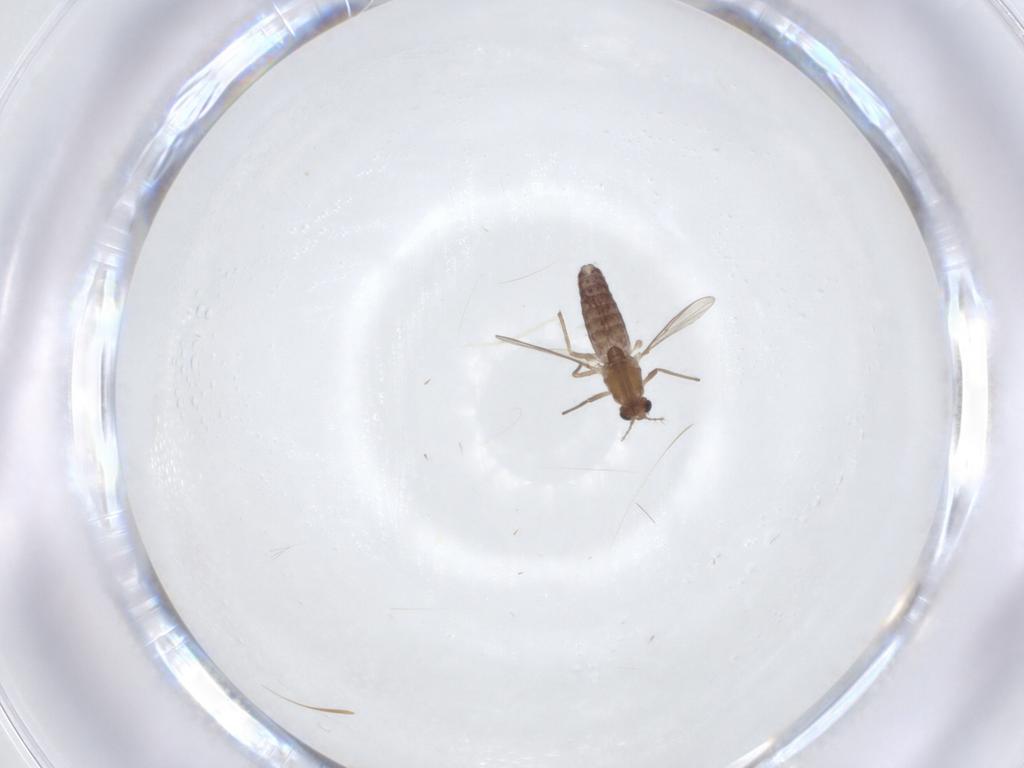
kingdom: Animalia
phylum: Arthropoda
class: Insecta
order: Diptera
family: Chironomidae
